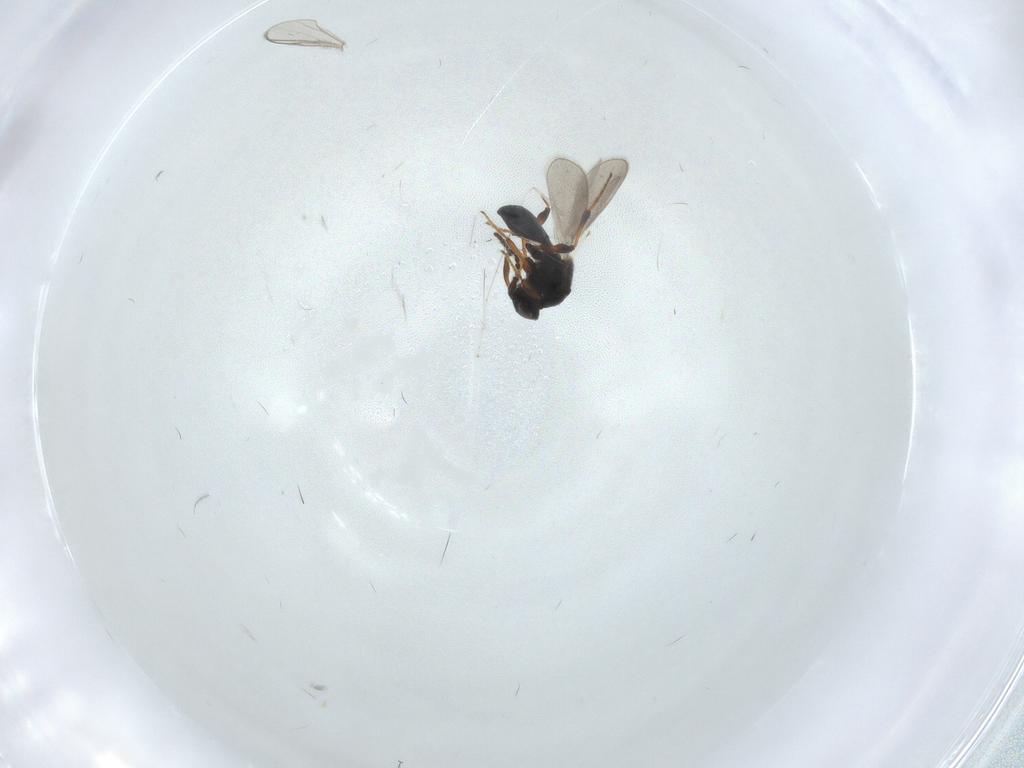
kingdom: Animalia
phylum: Arthropoda
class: Insecta
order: Hymenoptera
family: Platygastridae
